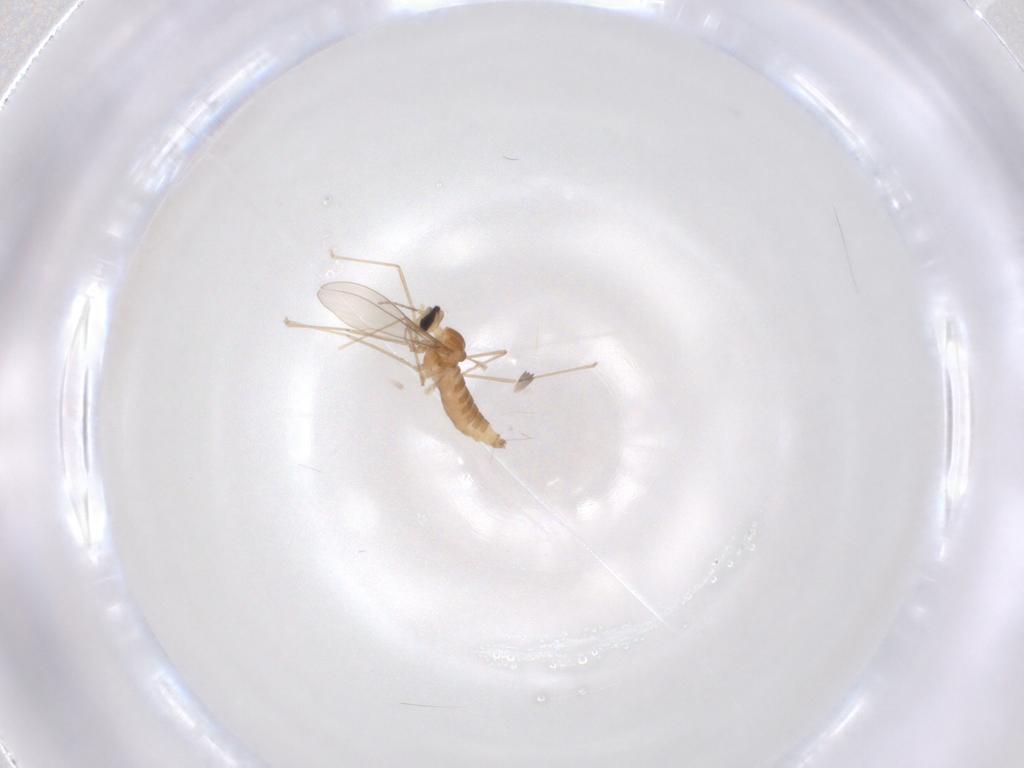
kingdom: Animalia
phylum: Arthropoda
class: Insecta
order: Diptera
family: Cecidomyiidae
